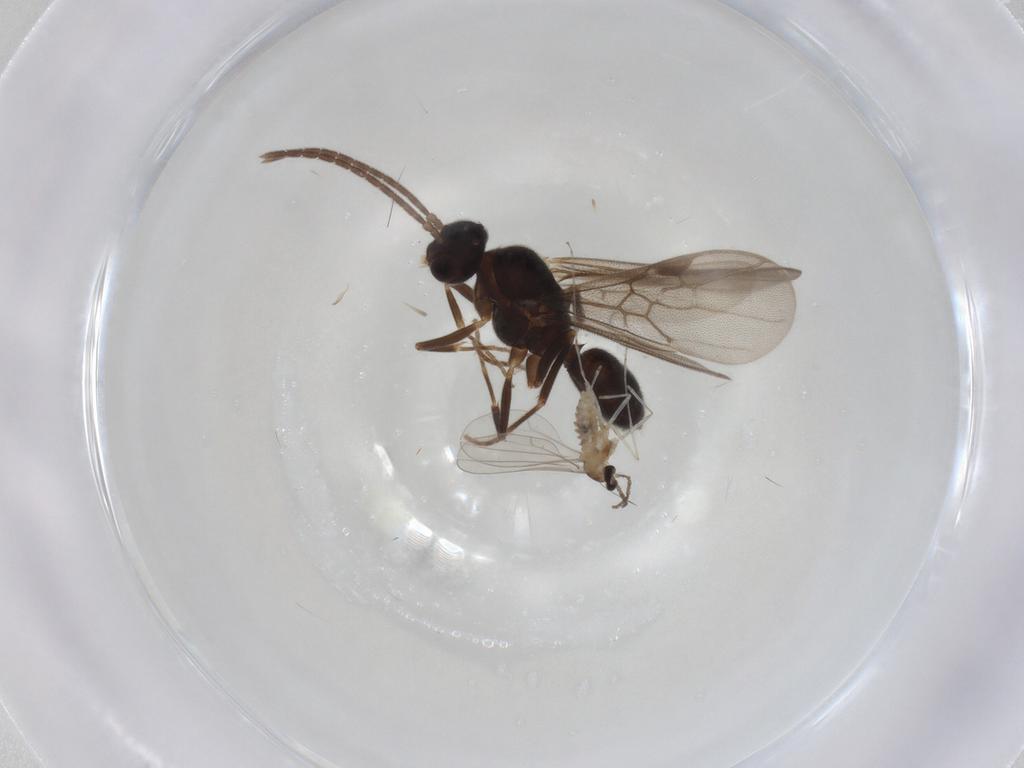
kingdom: Animalia
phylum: Arthropoda
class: Insecta
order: Hymenoptera
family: Formicidae
